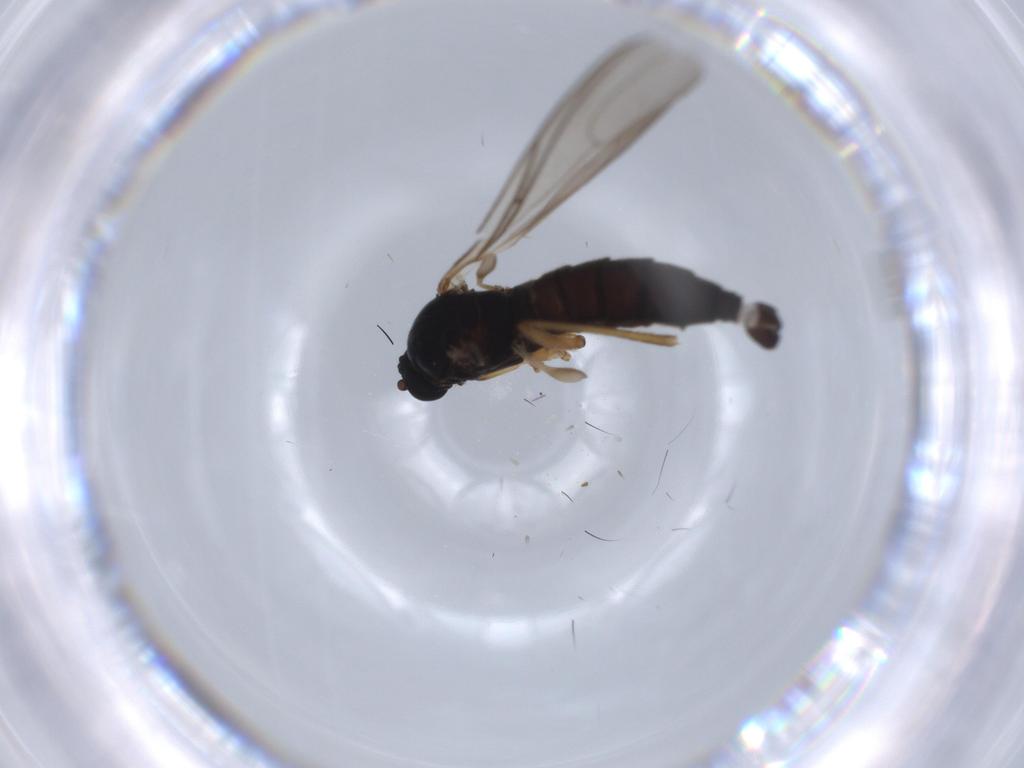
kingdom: Animalia
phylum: Arthropoda
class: Insecta
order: Diptera
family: Sciaridae
